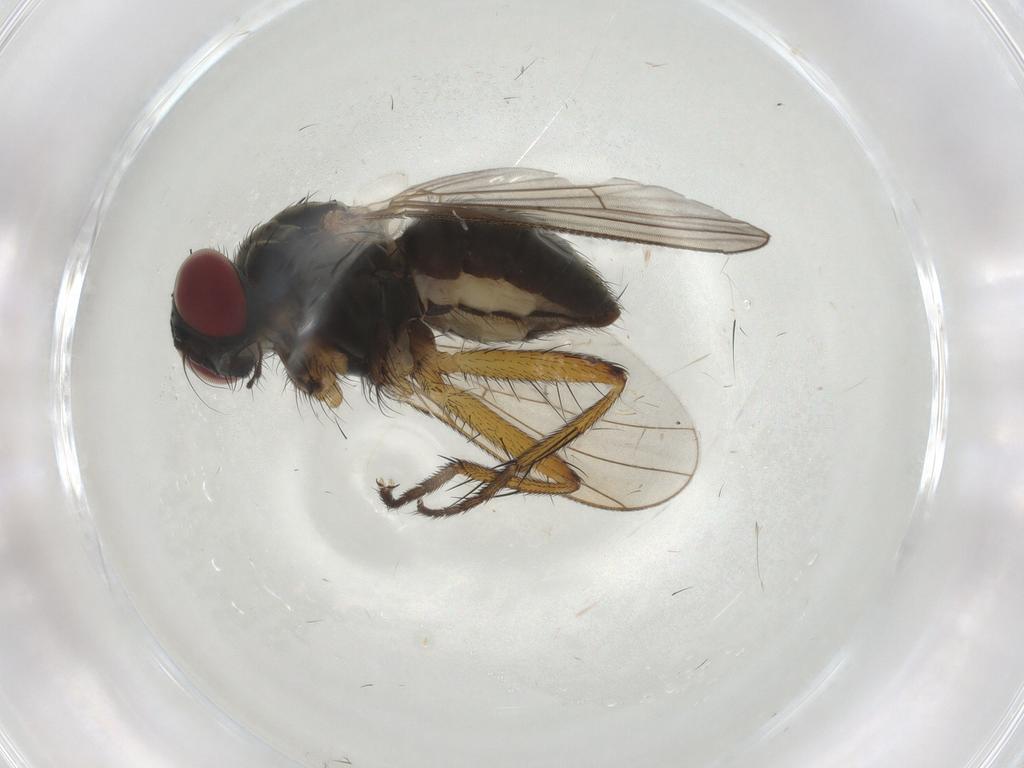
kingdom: Animalia
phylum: Arthropoda
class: Insecta
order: Diptera
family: Muscidae
